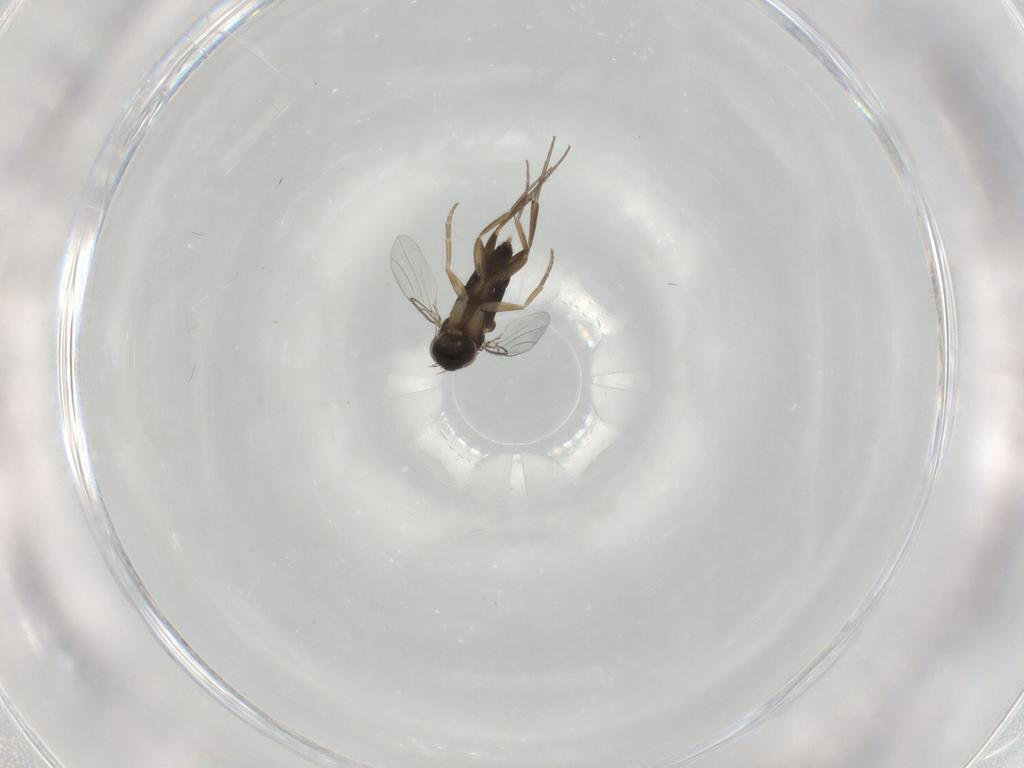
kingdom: Animalia
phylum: Arthropoda
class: Insecta
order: Diptera
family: Phoridae
